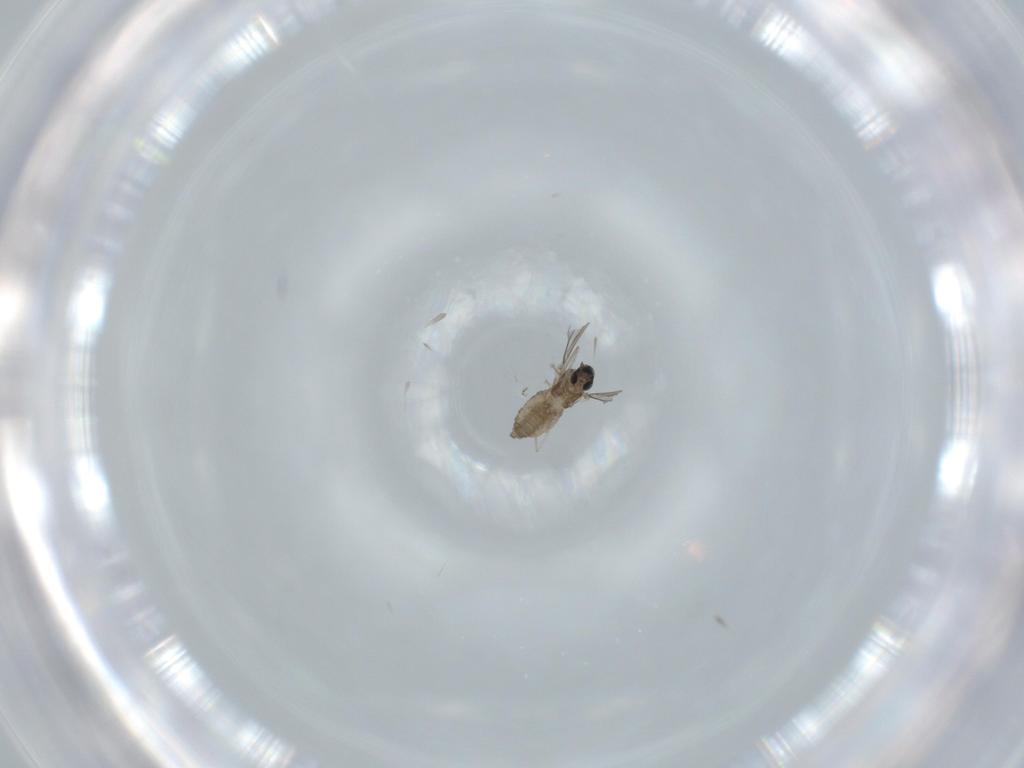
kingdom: Animalia
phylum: Arthropoda
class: Insecta
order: Diptera
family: Cecidomyiidae
